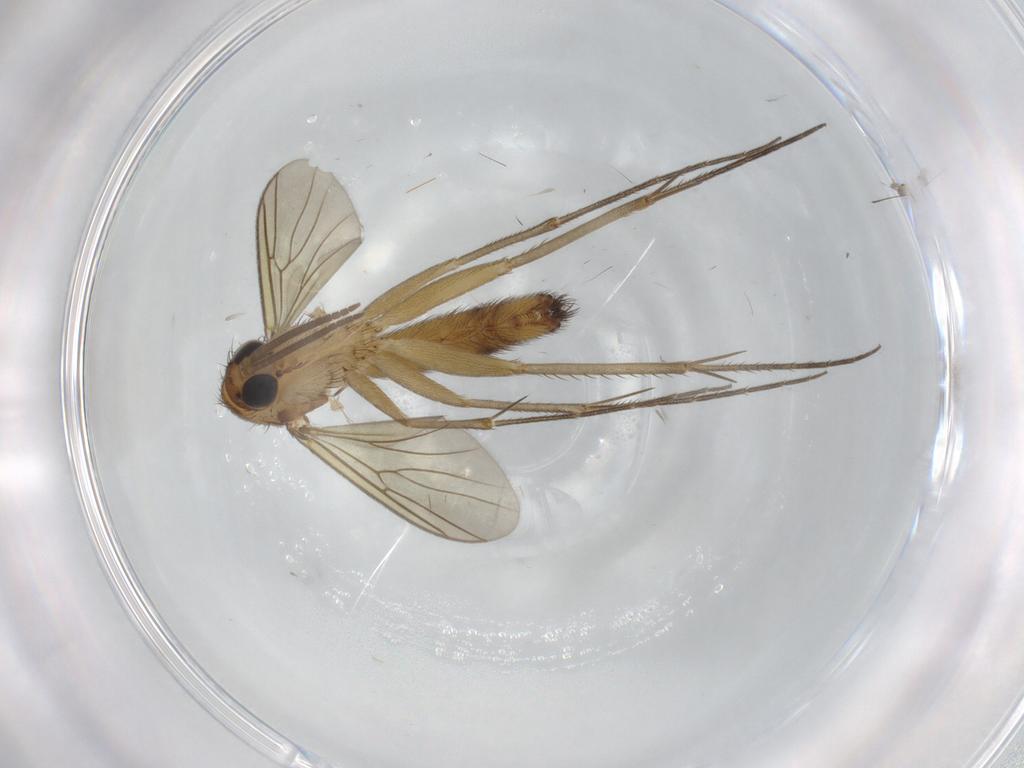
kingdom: Animalia
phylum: Arthropoda
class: Insecta
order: Diptera
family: Mycetophilidae
